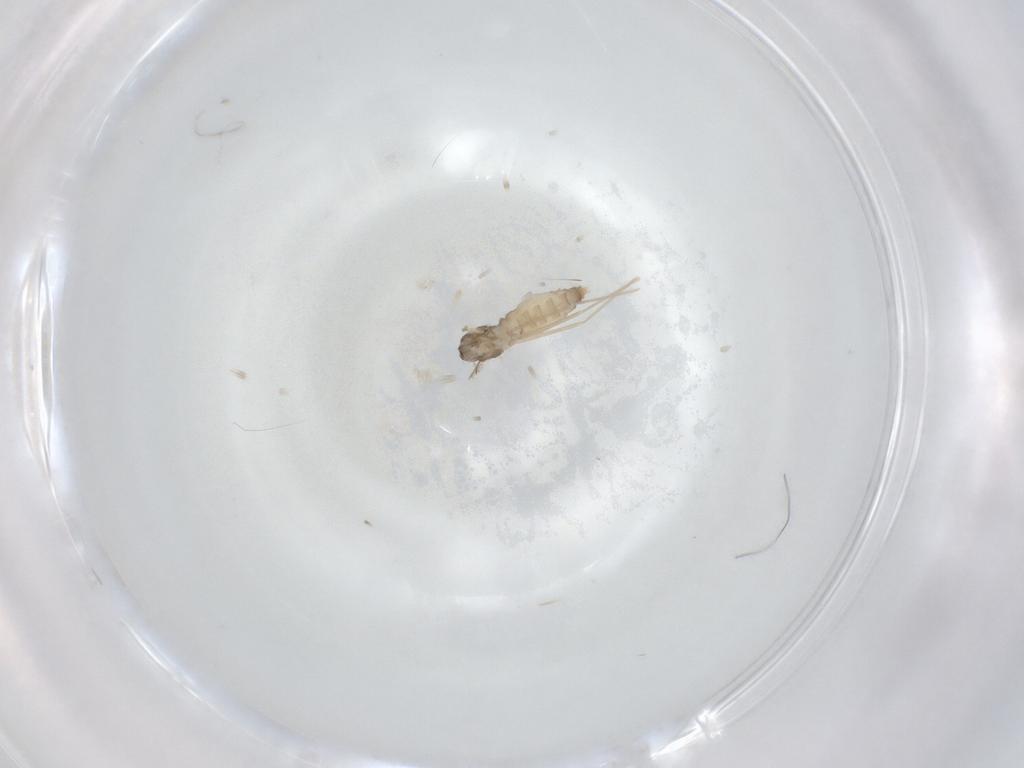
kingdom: Animalia
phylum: Arthropoda
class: Insecta
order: Diptera
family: Cecidomyiidae
